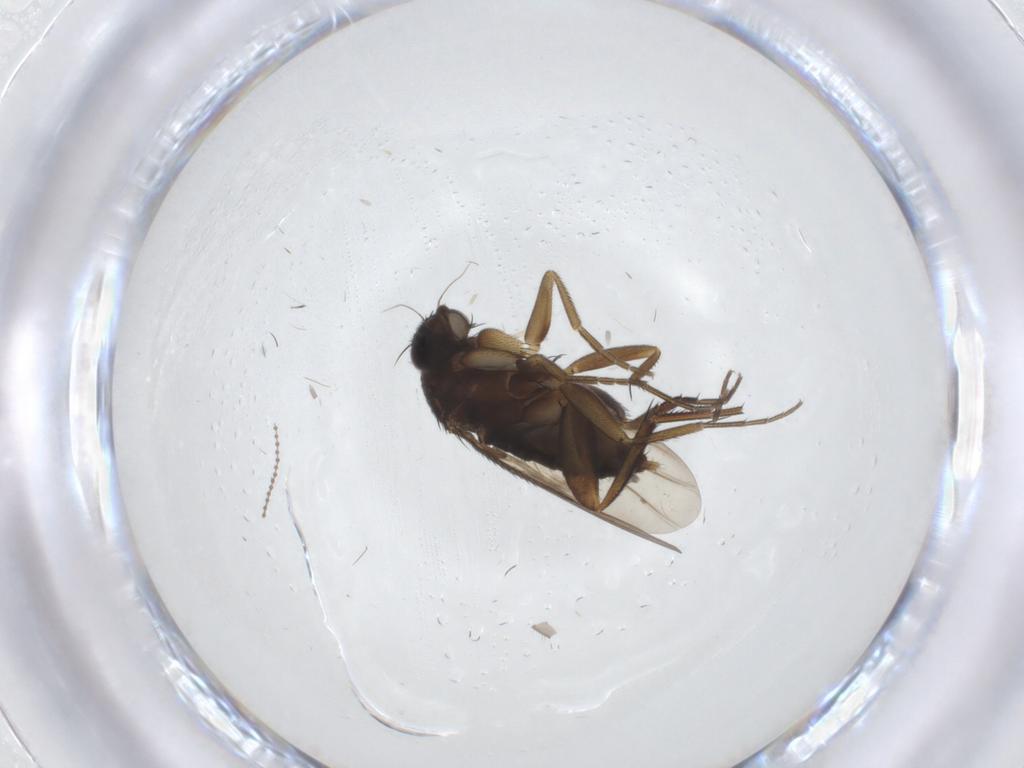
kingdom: Animalia
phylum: Arthropoda
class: Insecta
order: Diptera
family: Phoridae
